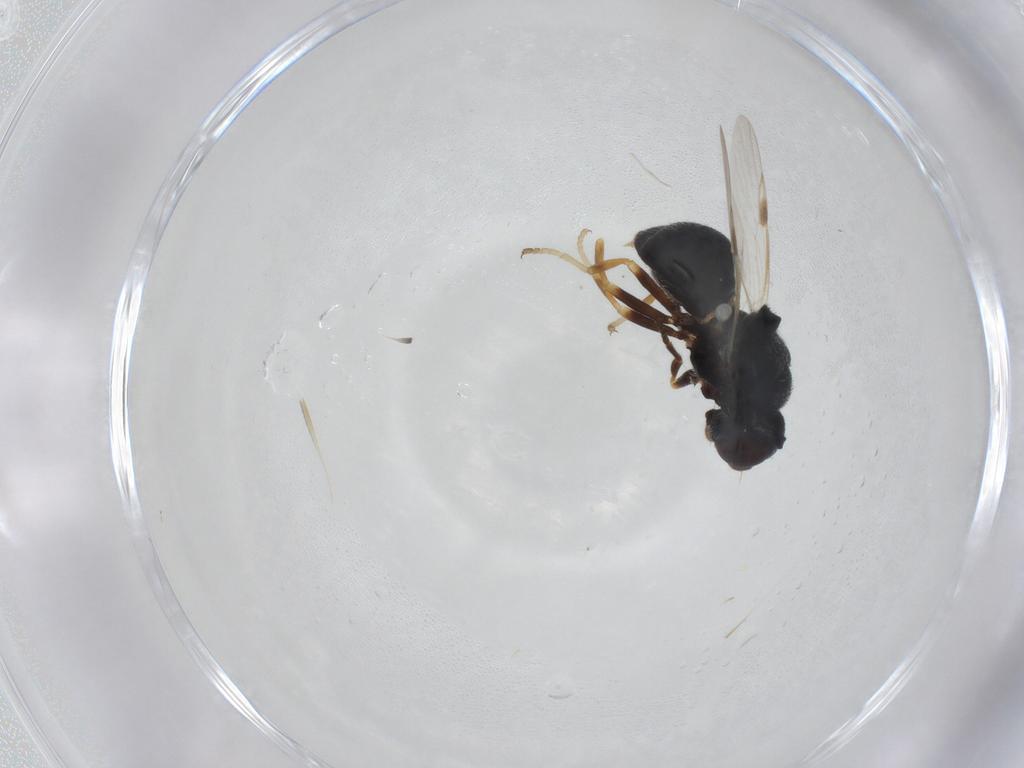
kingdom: Animalia
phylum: Arthropoda
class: Insecta
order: Diptera
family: Stratiomyidae
